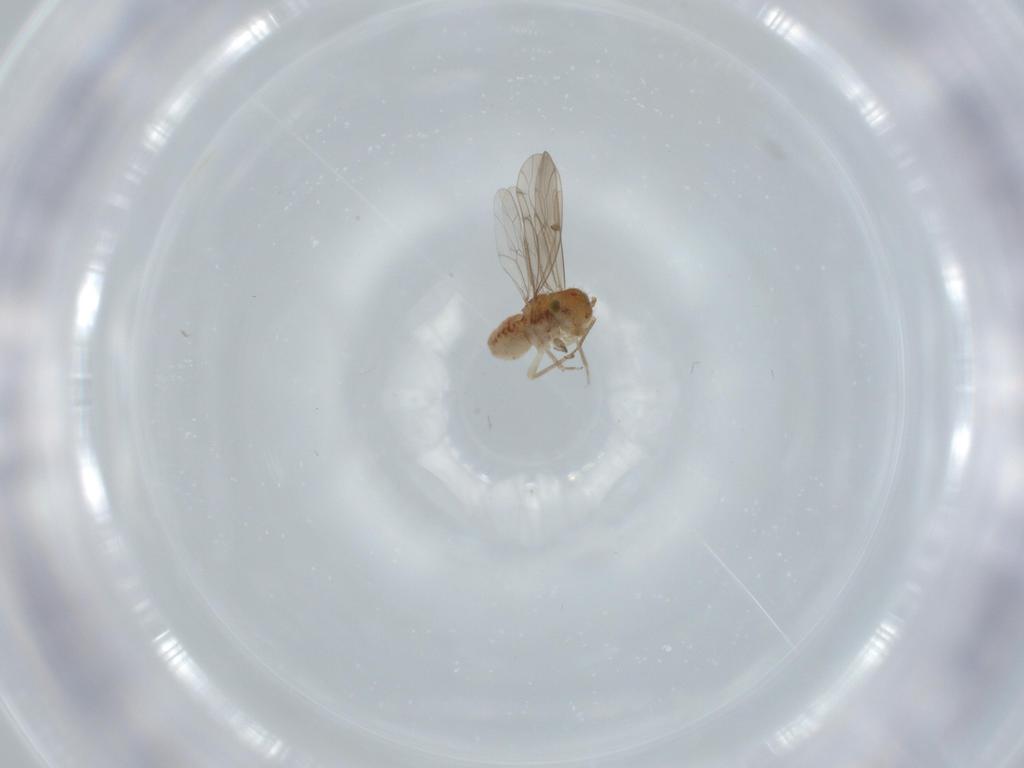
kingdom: Animalia
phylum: Arthropoda
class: Insecta
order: Psocodea
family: Ectopsocidae
